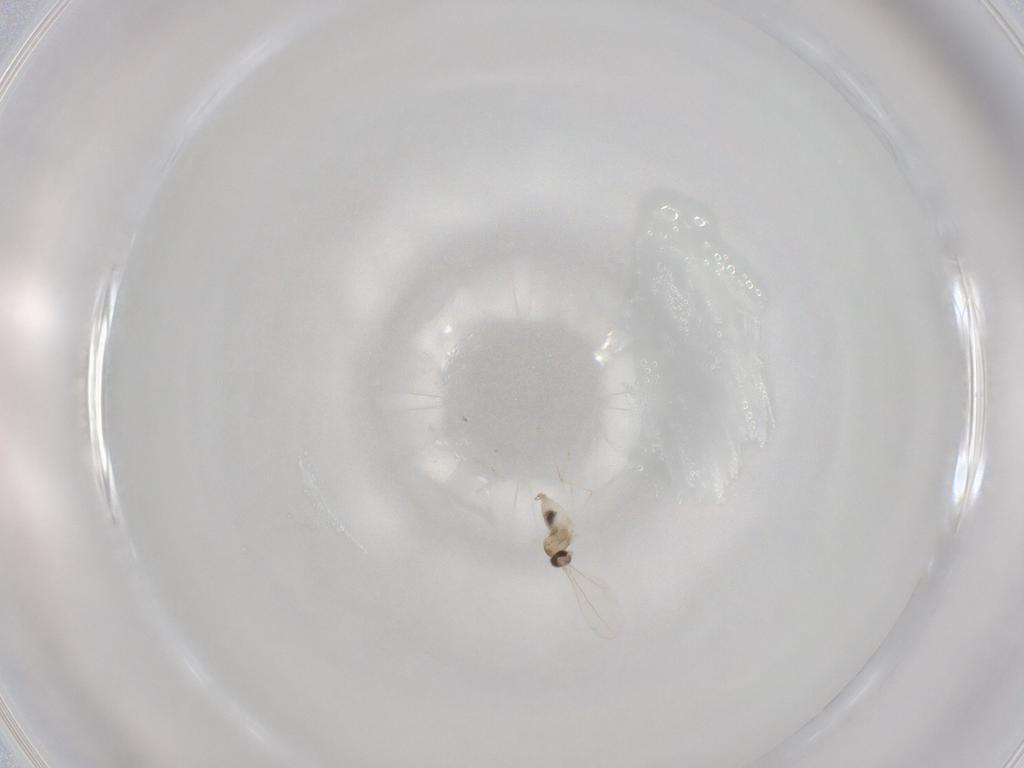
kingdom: Animalia
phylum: Arthropoda
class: Insecta
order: Diptera
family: Cecidomyiidae
